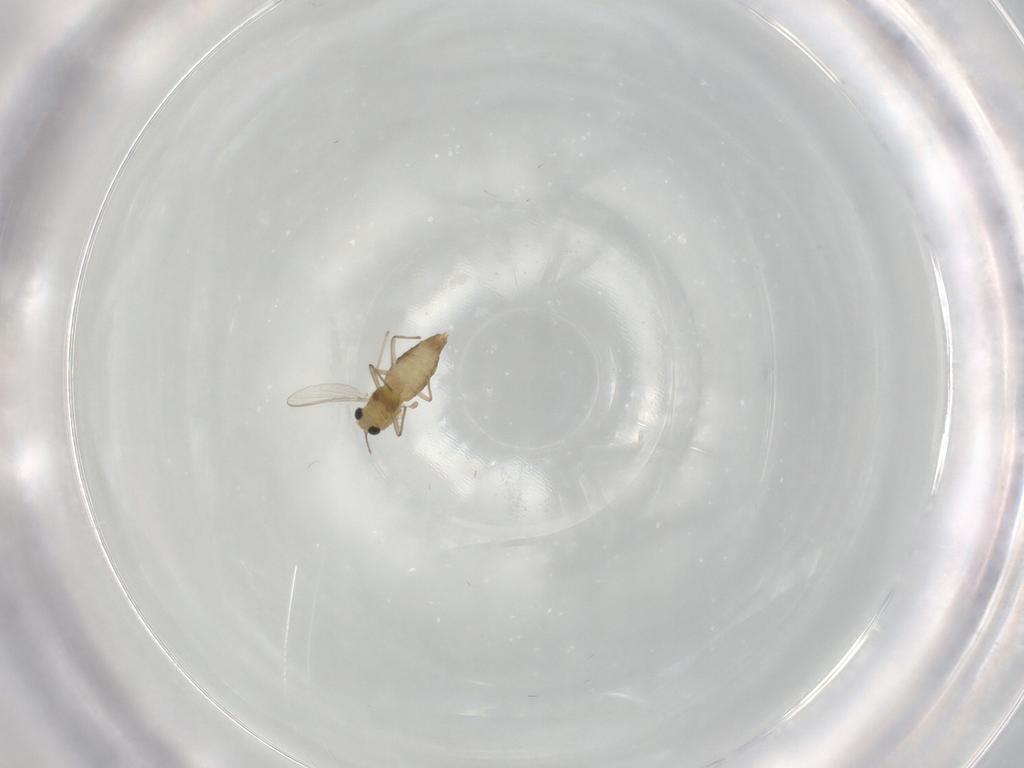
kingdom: Animalia
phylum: Arthropoda
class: Insecta
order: Diptera
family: Chironomidae
